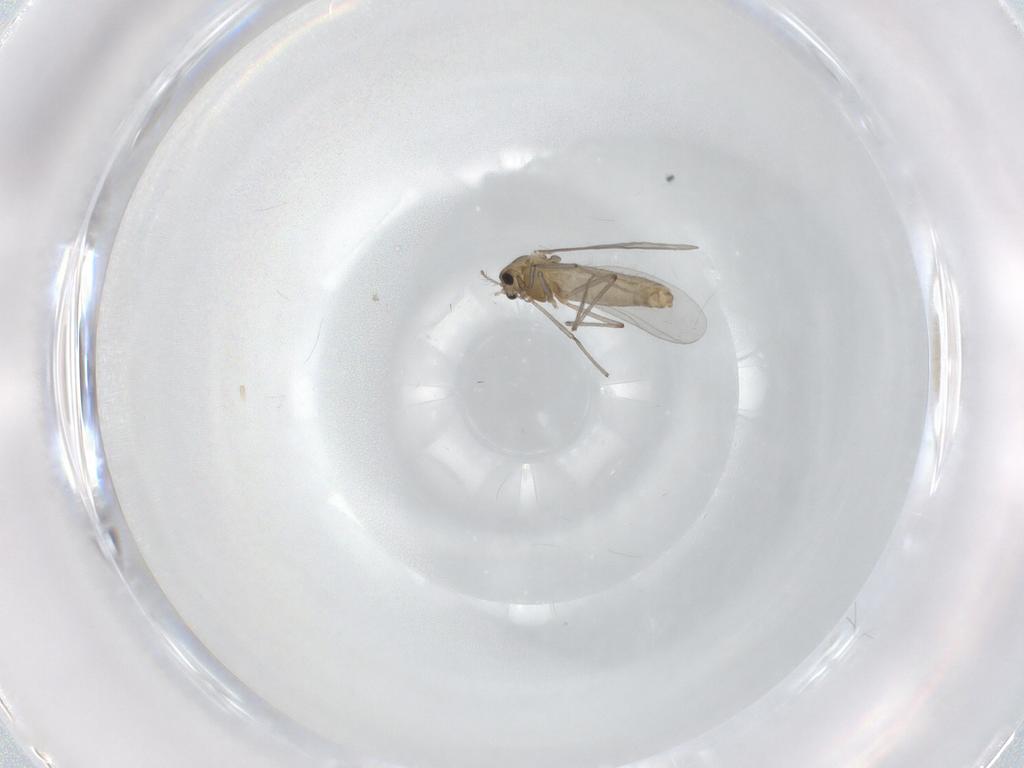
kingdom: Animalia
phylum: Arthropoda
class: Insecta
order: Diptera
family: Chironomidae
